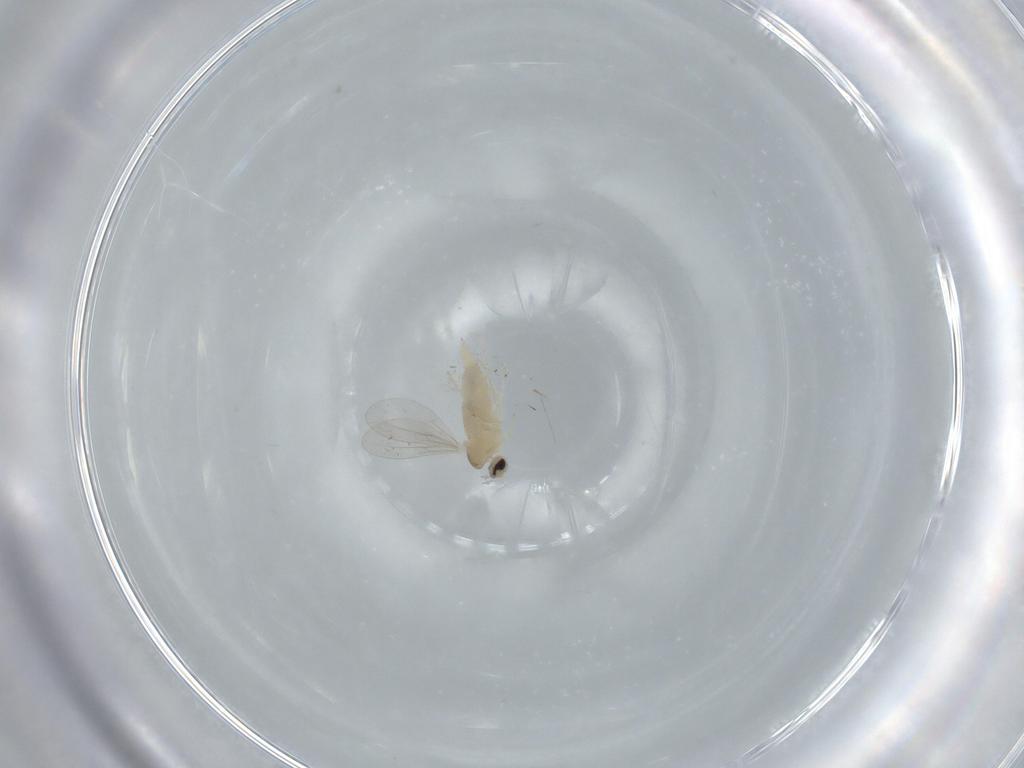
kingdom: Animalia
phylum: Arthropoda
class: Insecta
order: Diptera
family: Cecidomyiidae
